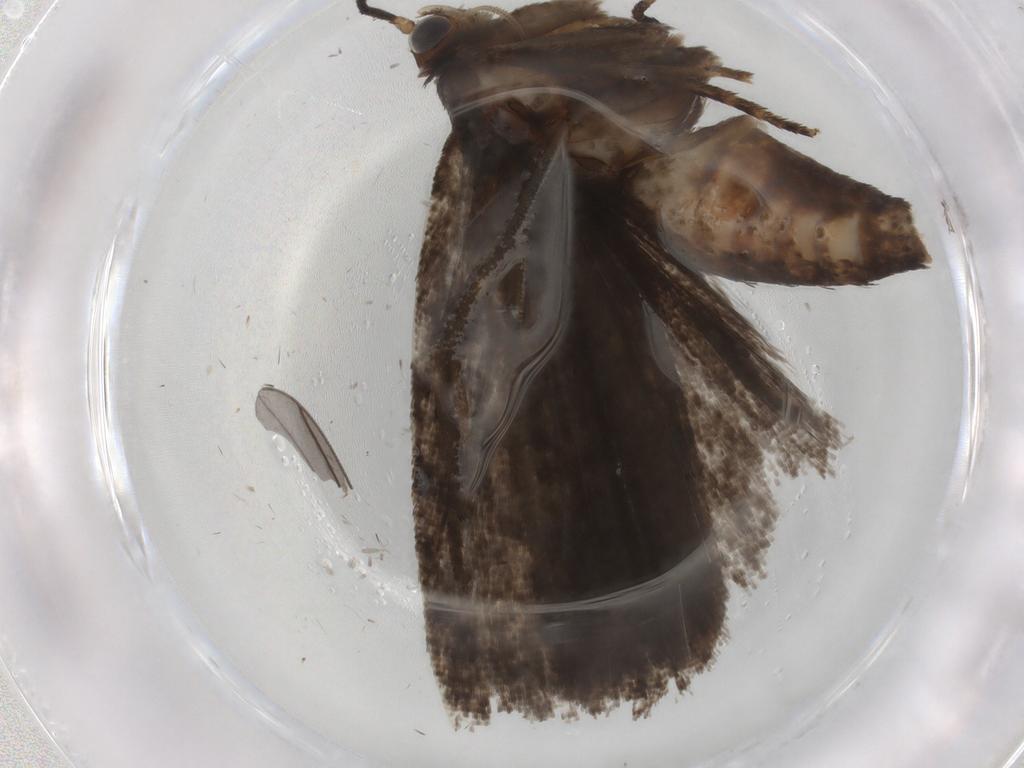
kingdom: Animalia
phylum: Arthropoda
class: Insecta
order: Lepidoptera
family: Tortricidae
